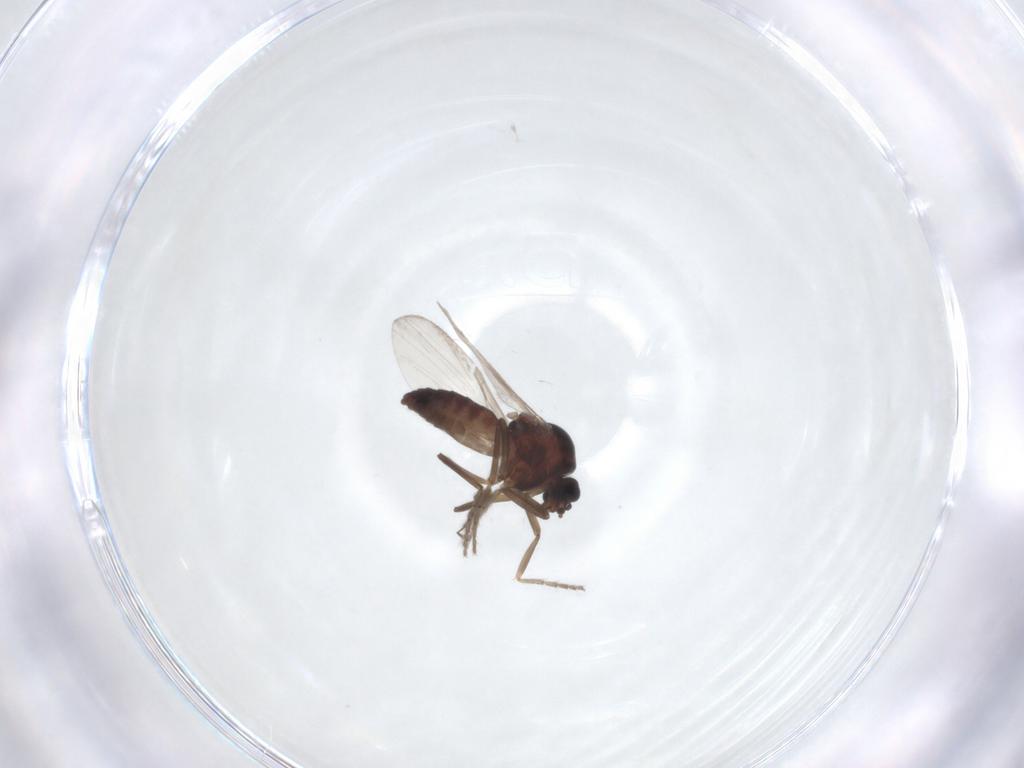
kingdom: Animalia
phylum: Arthropoda
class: Insecta
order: Diptera
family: Ceratopogonidae
